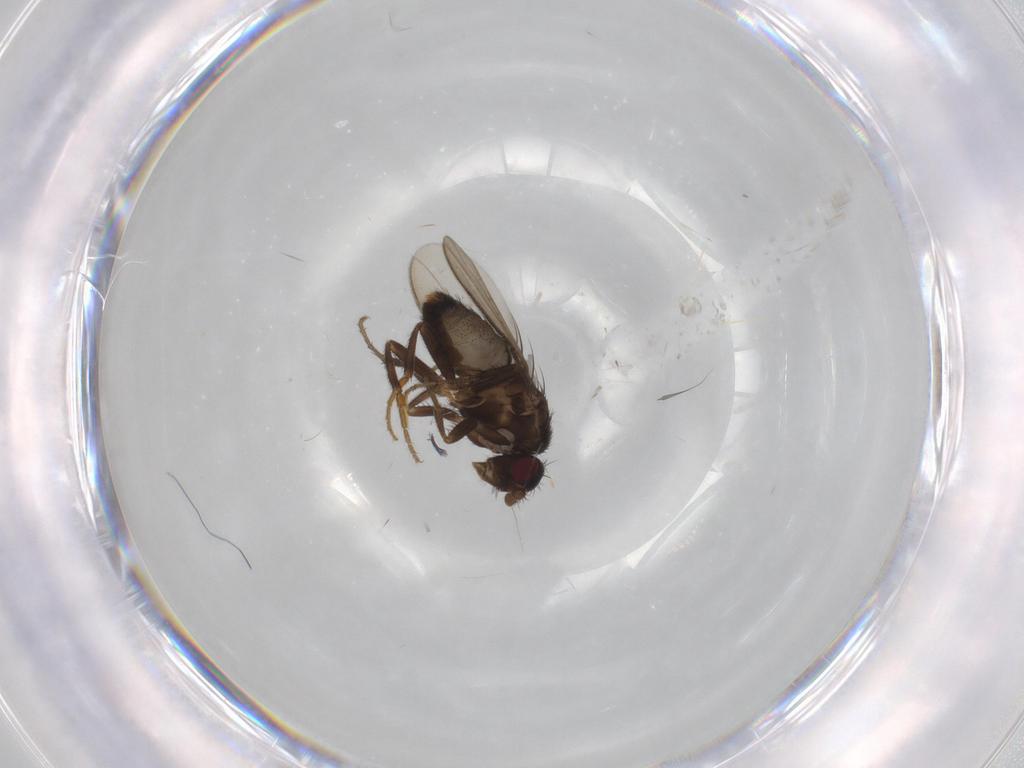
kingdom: Animalia
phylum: Arthropoda
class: Insecta
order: Diptera
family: Sphaeroceridae
